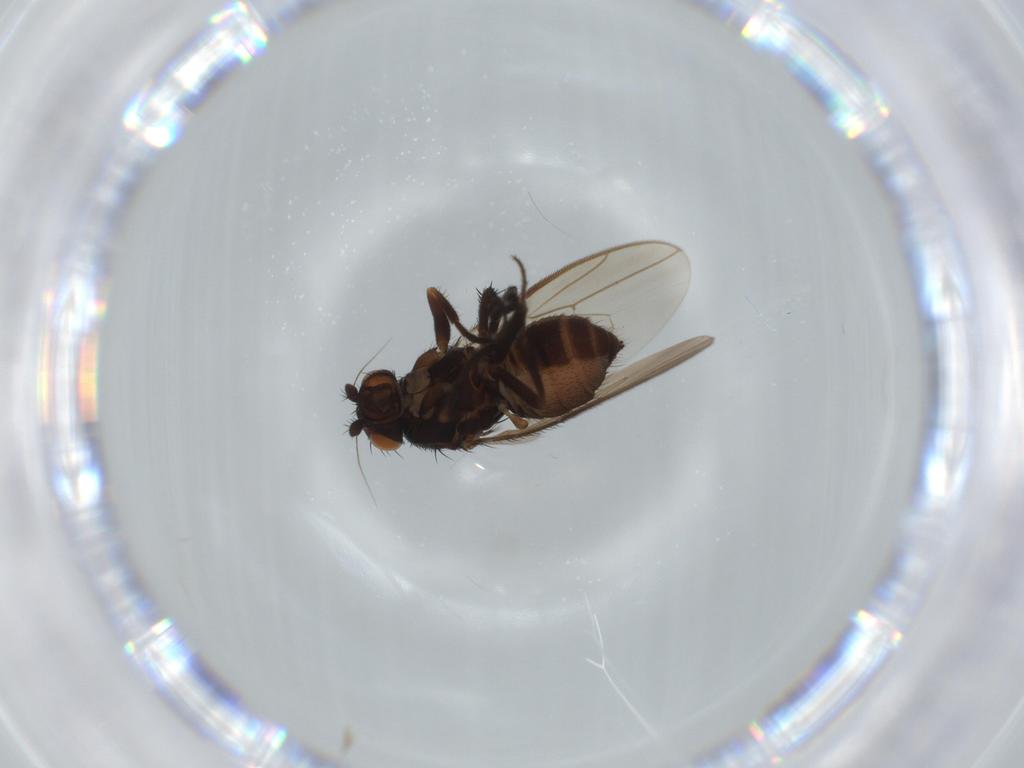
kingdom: Animalia
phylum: Arthropoda
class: Insecta
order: Diptera
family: Sphaeroceridae
